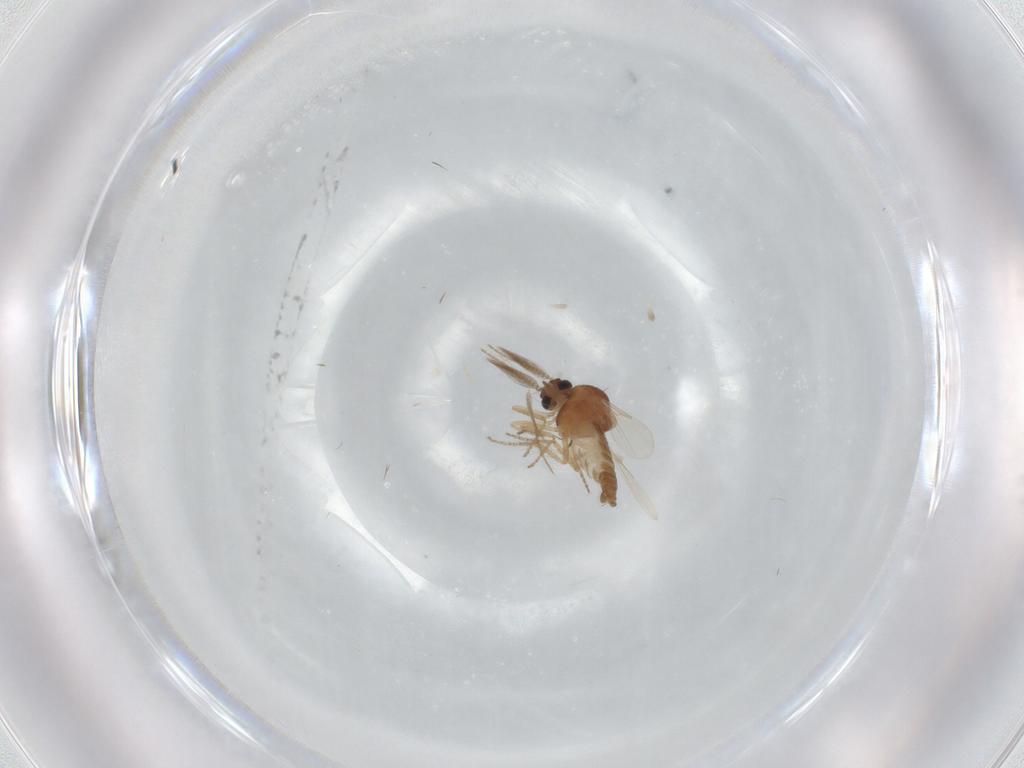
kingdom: Animalia
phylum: Arthropoda
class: Insecta
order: Diptera
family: Ceratopogonidae
